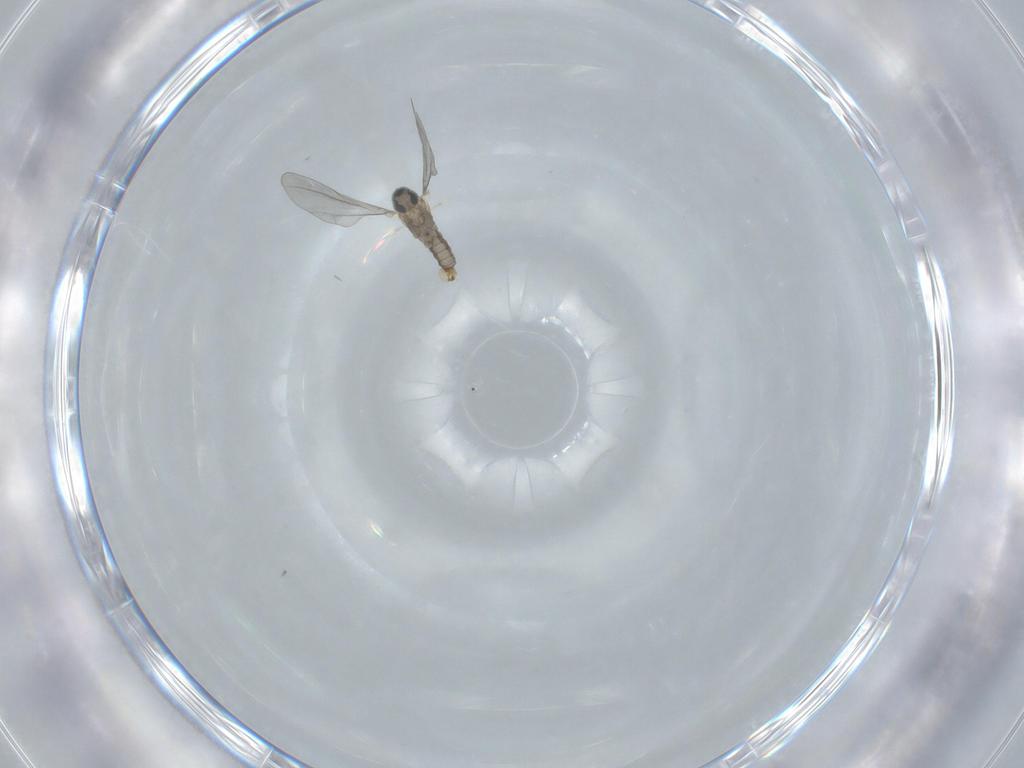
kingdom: Animalia
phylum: Arthropoda
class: Insecta
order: Diptera
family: Cecidomyiidae
